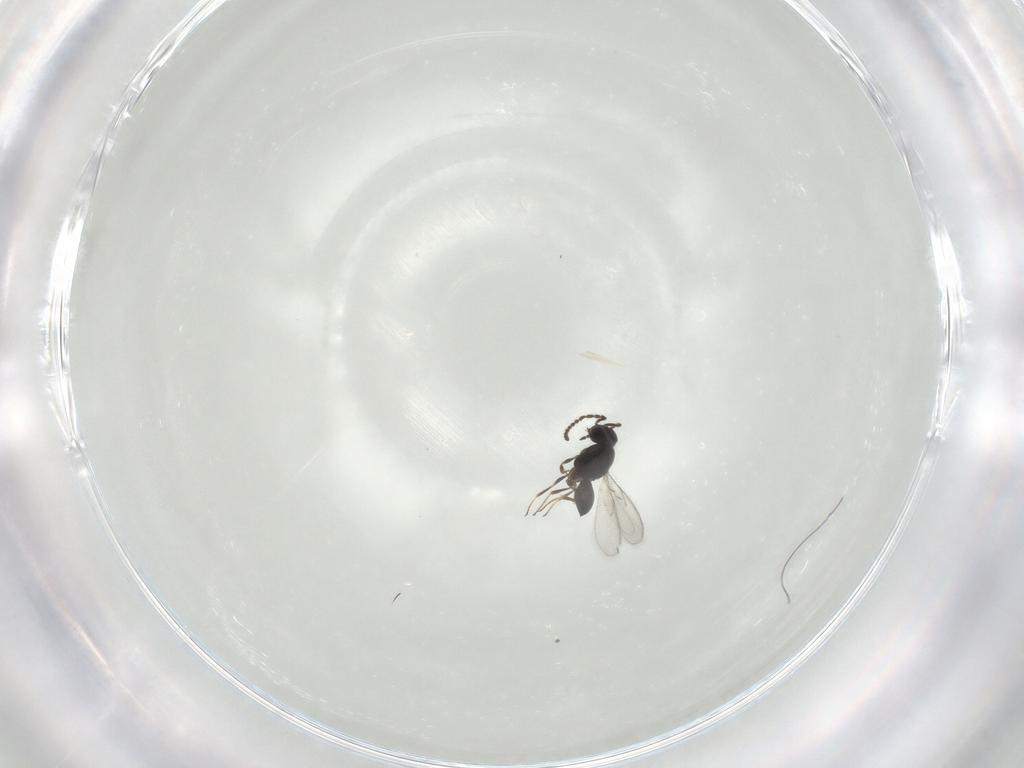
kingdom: Animalia
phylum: Arthropoda
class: Insecta
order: Hymenoptera
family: Scelionidae
